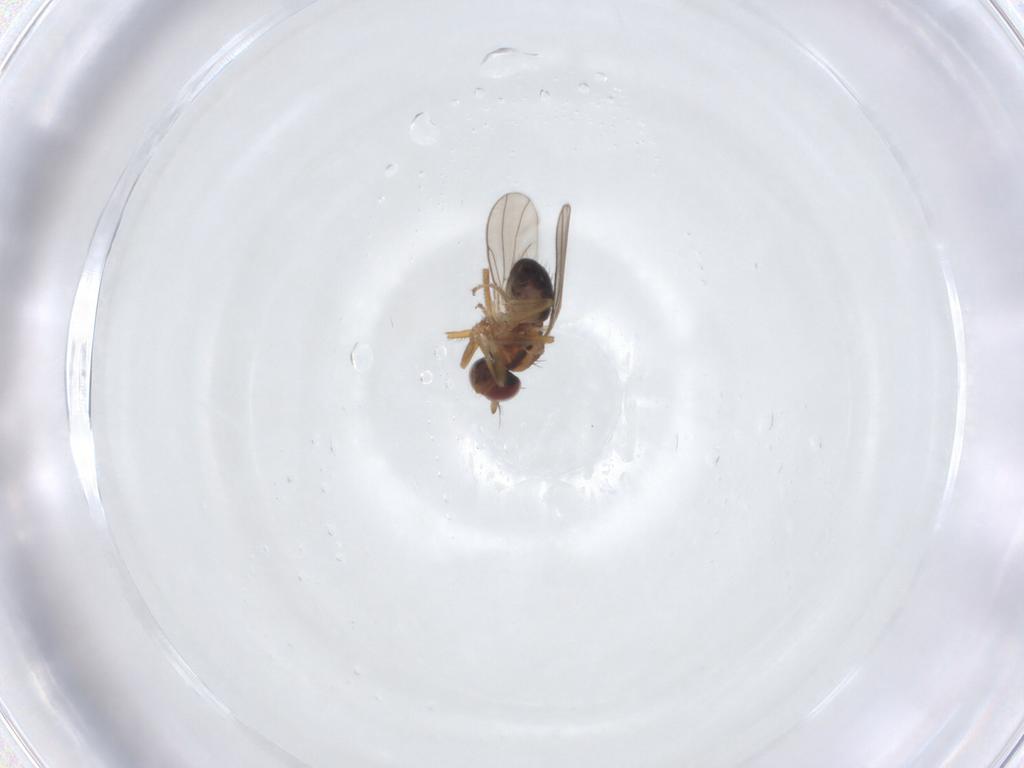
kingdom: Animalia
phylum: Arthropoda
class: Insecta
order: Diptera
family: Ephydridae
